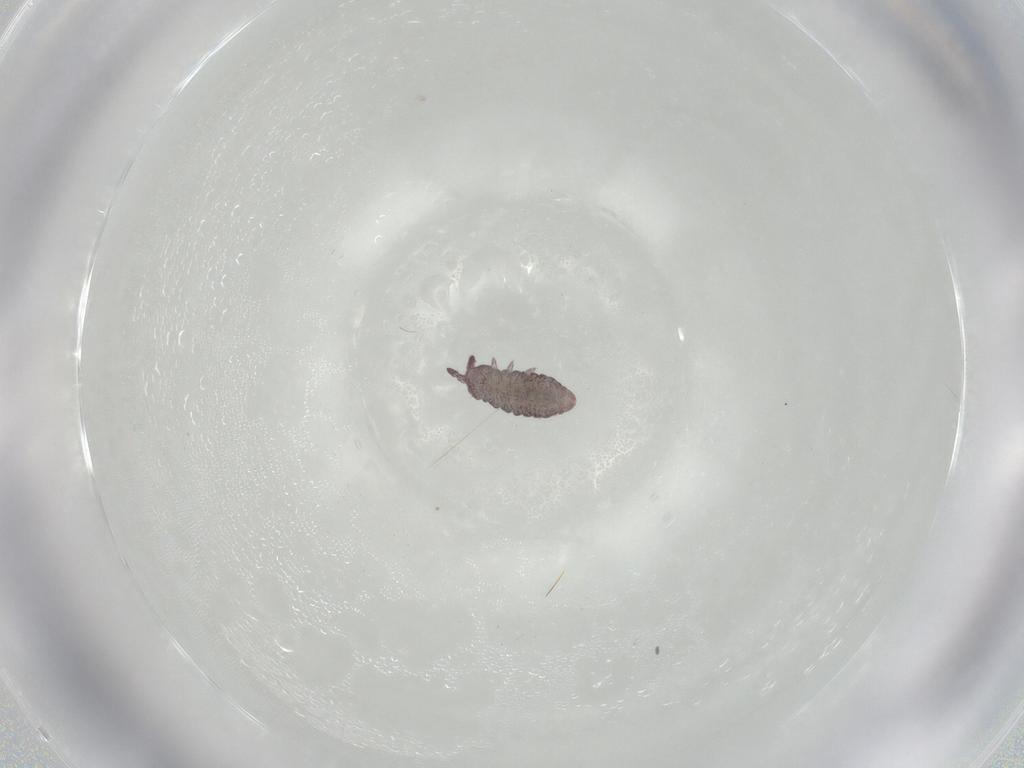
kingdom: Animalia
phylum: Arthropoda
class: Collembola
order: Poduromorpha
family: Hypogastruridae
